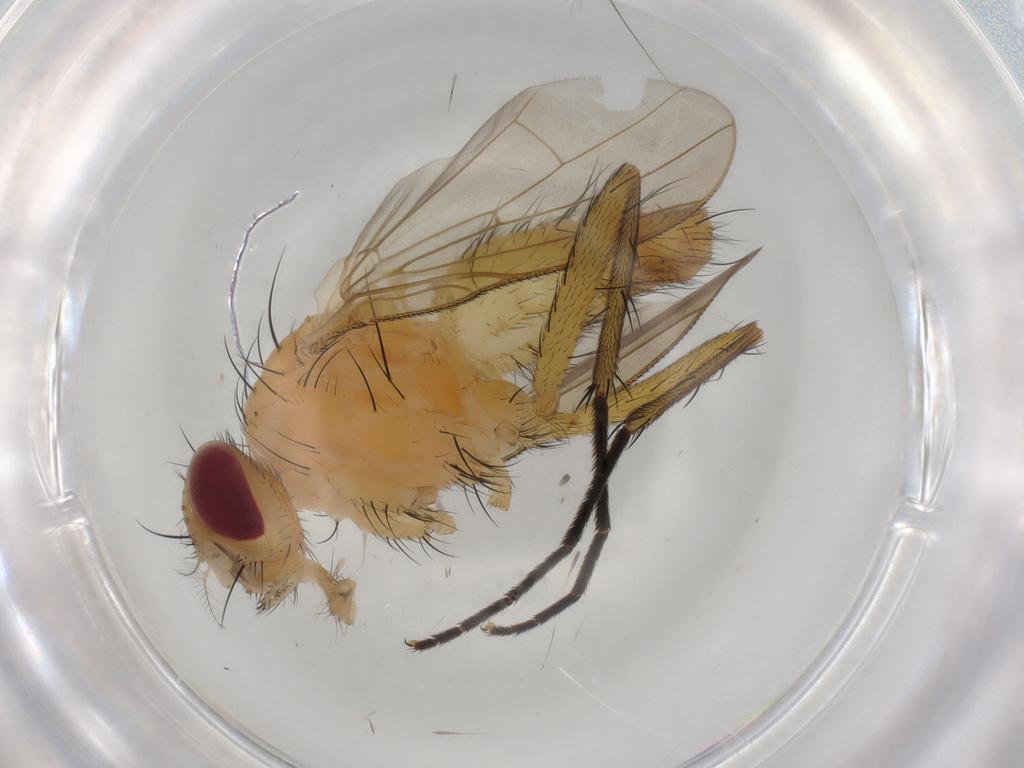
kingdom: Animalia
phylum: Arthropoda
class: Insecta
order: Diptera
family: Calliphoridae
